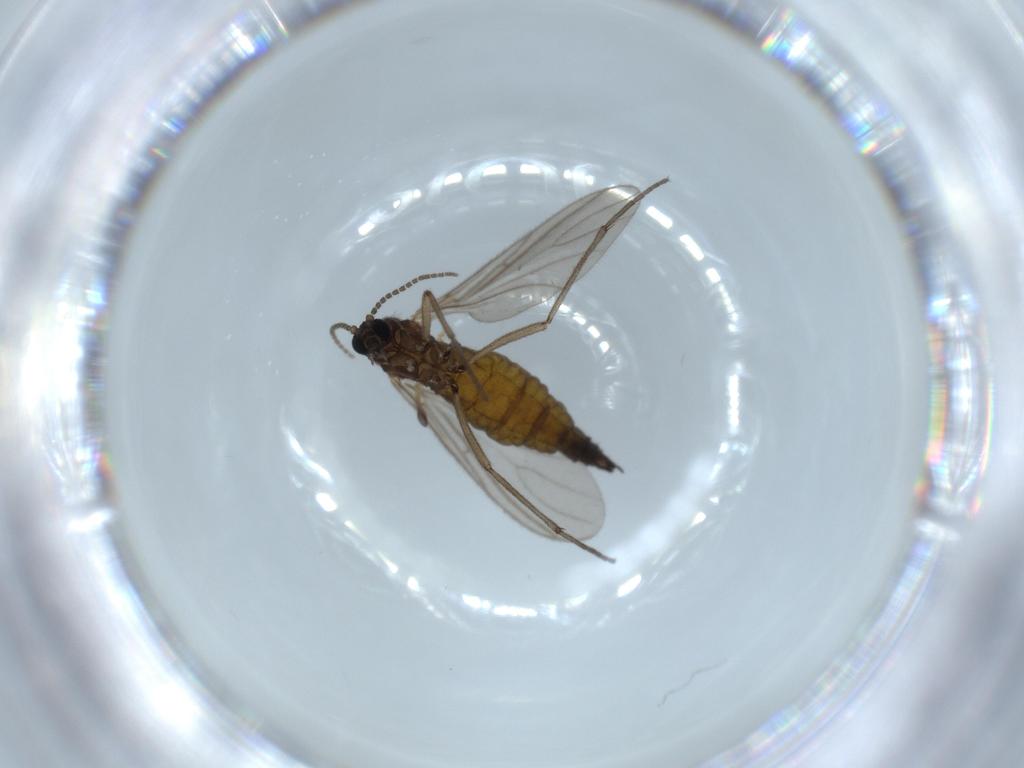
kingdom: Animalia
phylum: Arthropoda
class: Insecta
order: Diptera
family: Sciaridae
